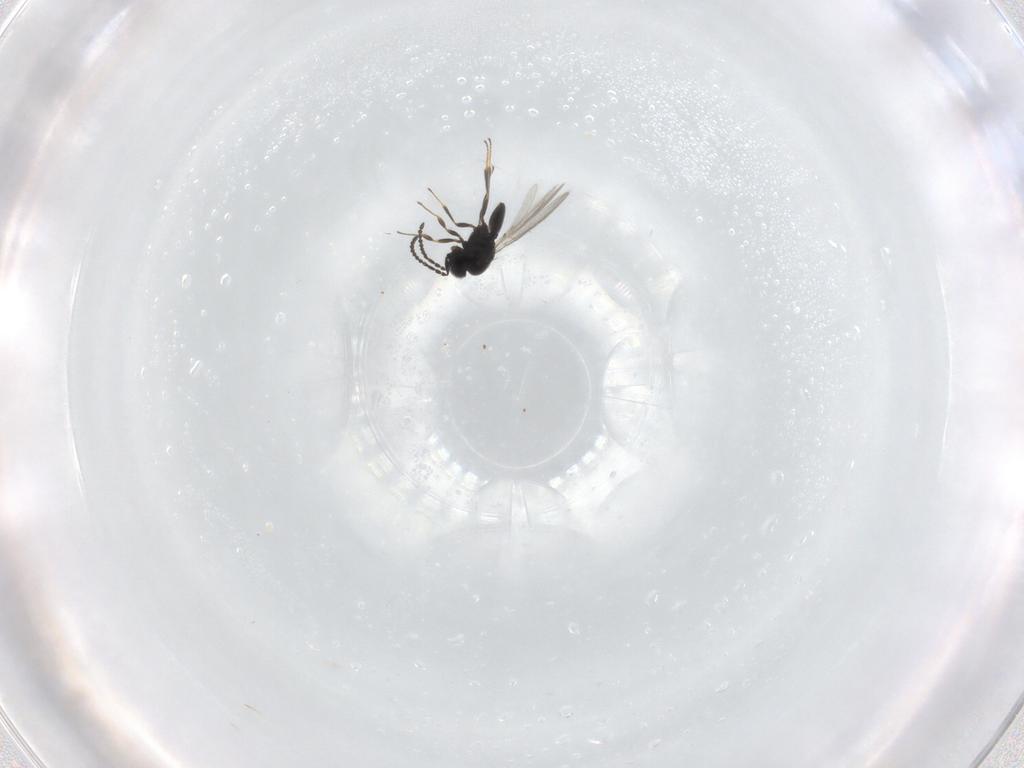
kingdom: Animalia
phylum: Arthropoda
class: Insecta
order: Hymenoptera
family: Scelionidae
